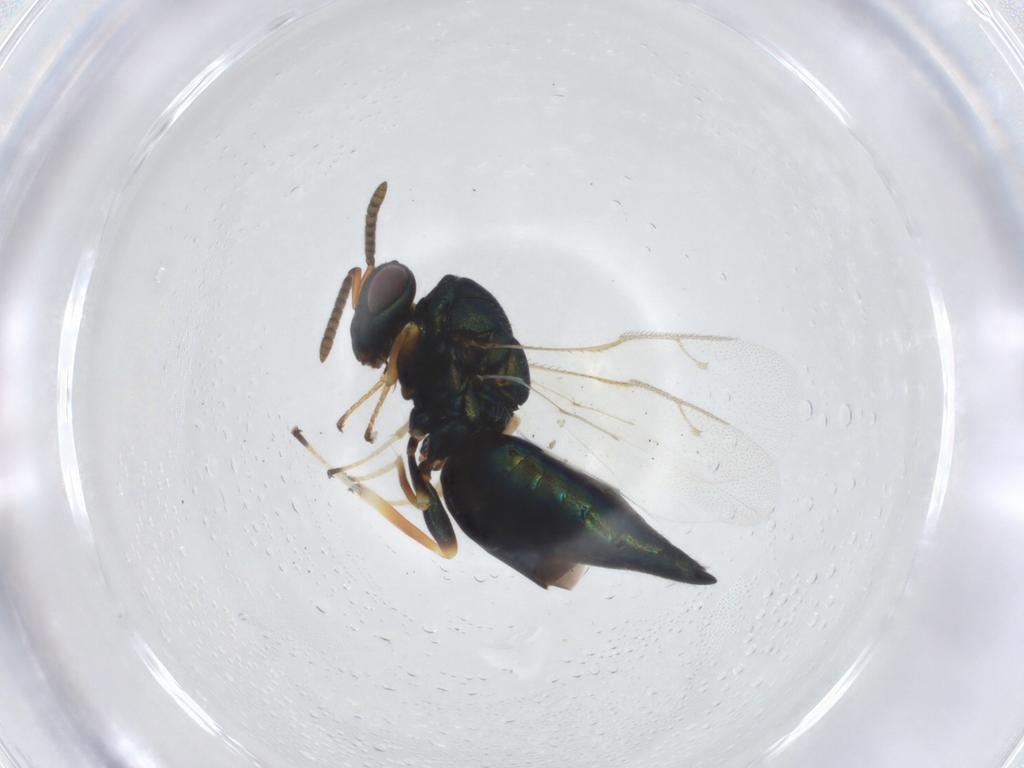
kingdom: Animalia
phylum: Arthropoda
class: Insecta
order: Hymenoptera
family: Pteromalidae
